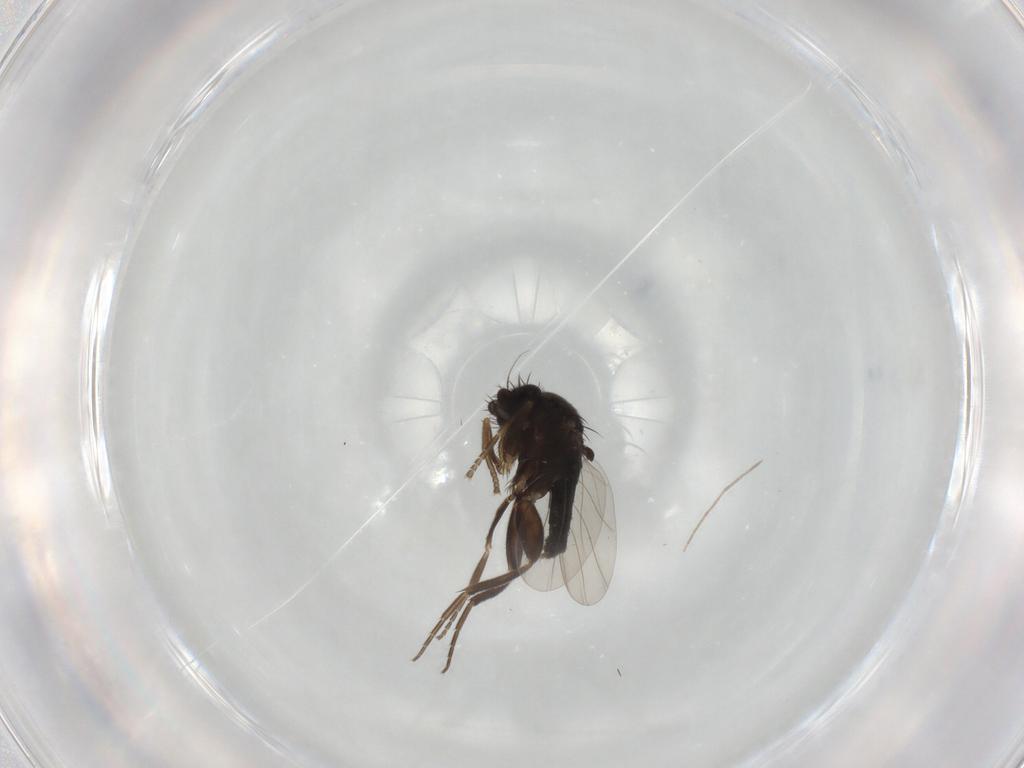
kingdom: Animalia
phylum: Arthropoda
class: Insecta
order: Diptera
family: Phoridae
